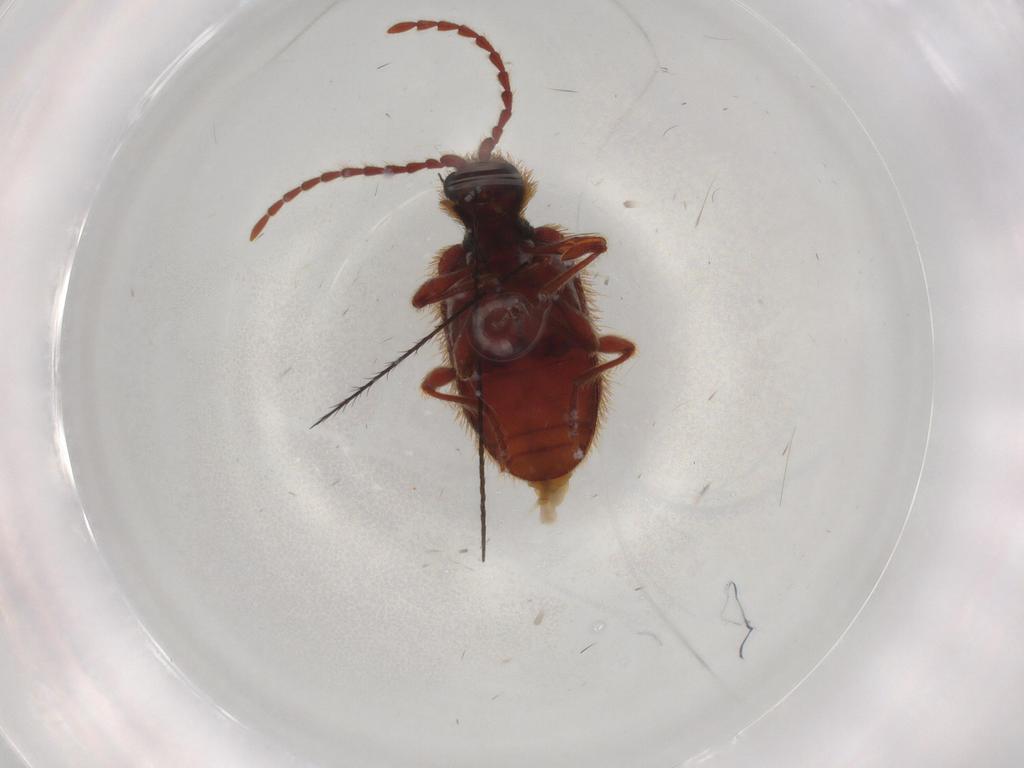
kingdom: Animalia
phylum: Arthropoda
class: Insecta
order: Coleoptera
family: Ptinidae
